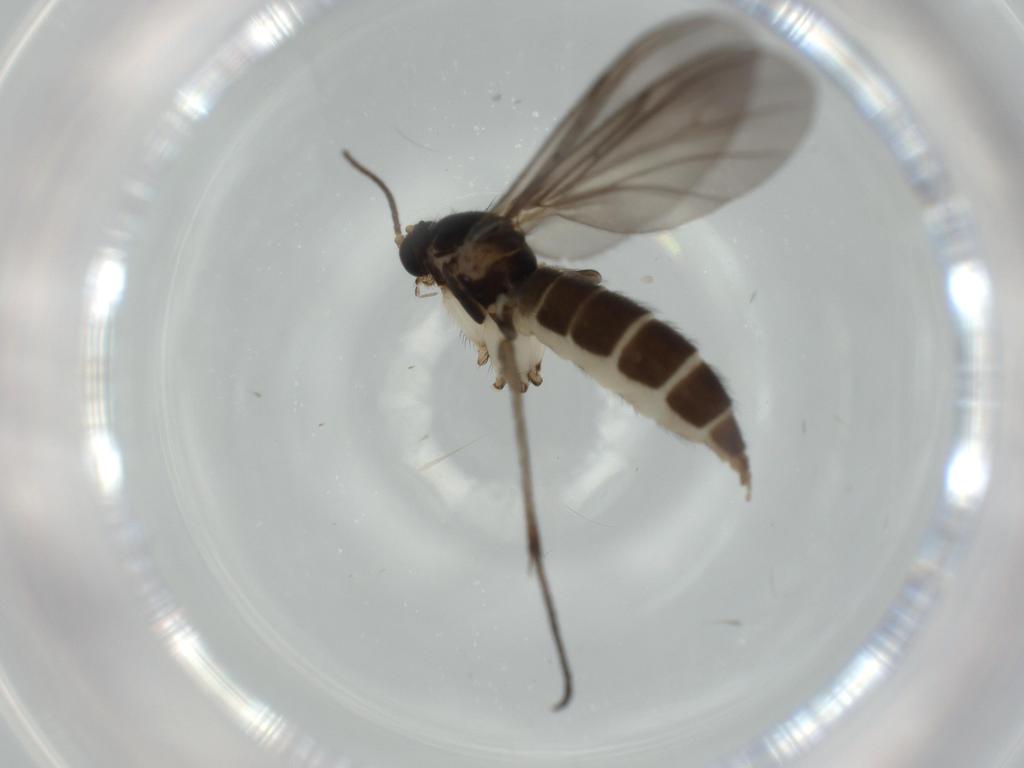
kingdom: Animalia
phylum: Arthropoda
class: Insecta
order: Diptera
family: Sciaridae
